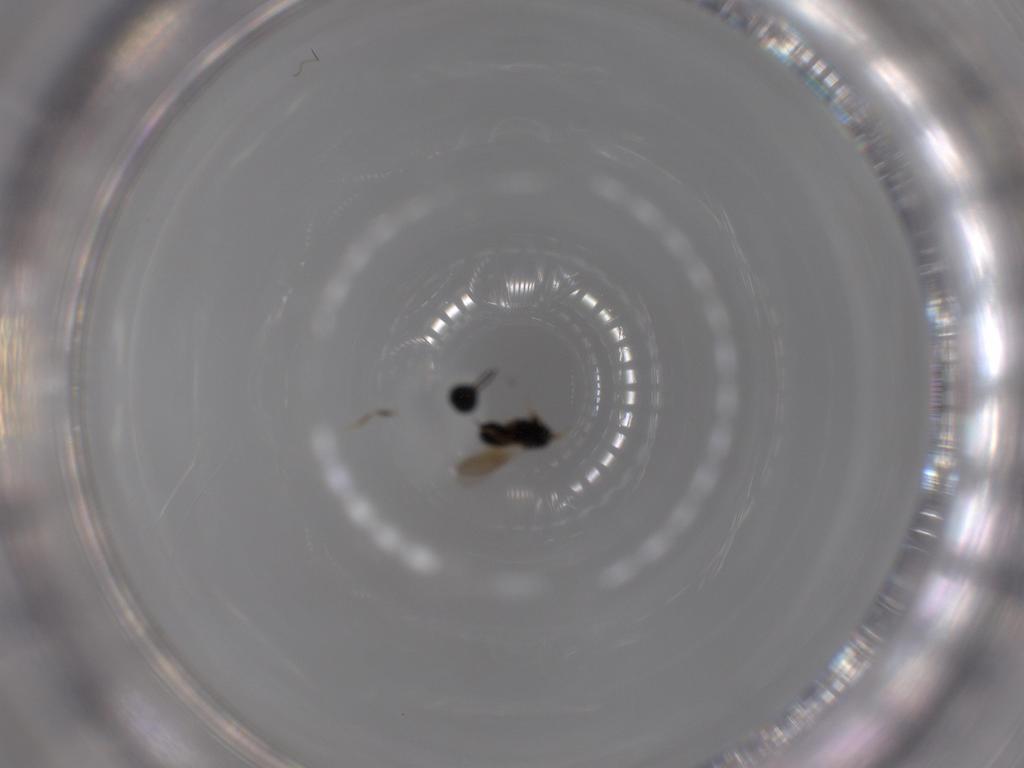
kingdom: Animalia
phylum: Arthropoda
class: Insecta
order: Hymenoptera
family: Scelionidae
